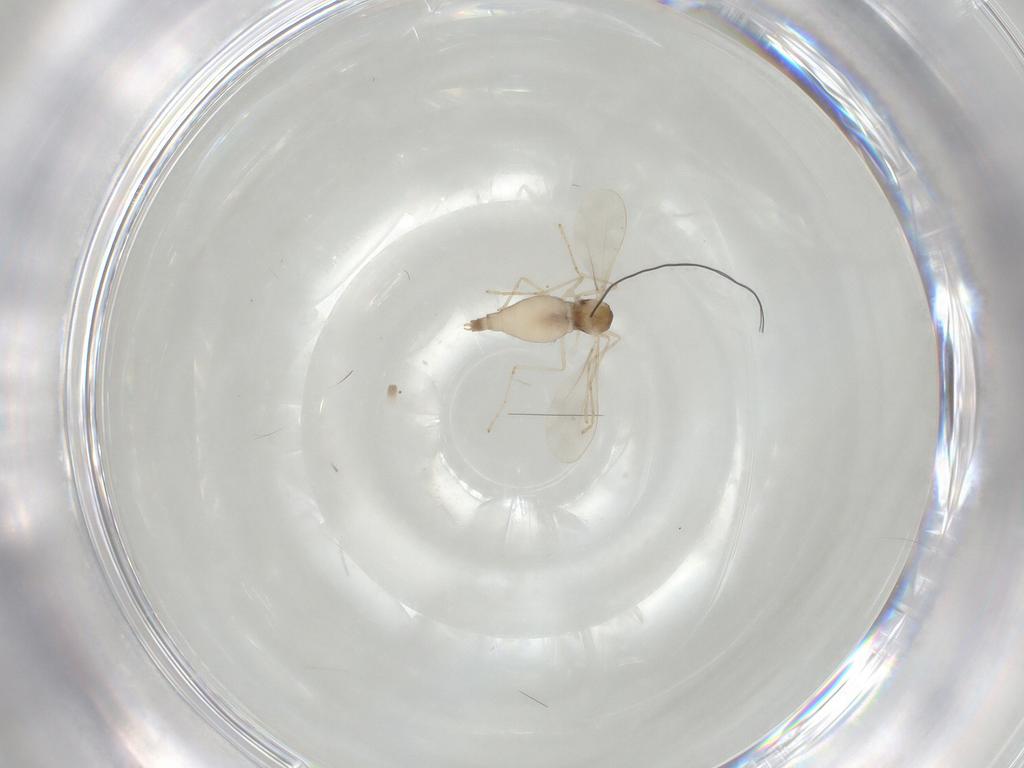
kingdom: Animalia
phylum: Arthropoda
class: Insecta
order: Diptera
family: Cecidomyiidae
